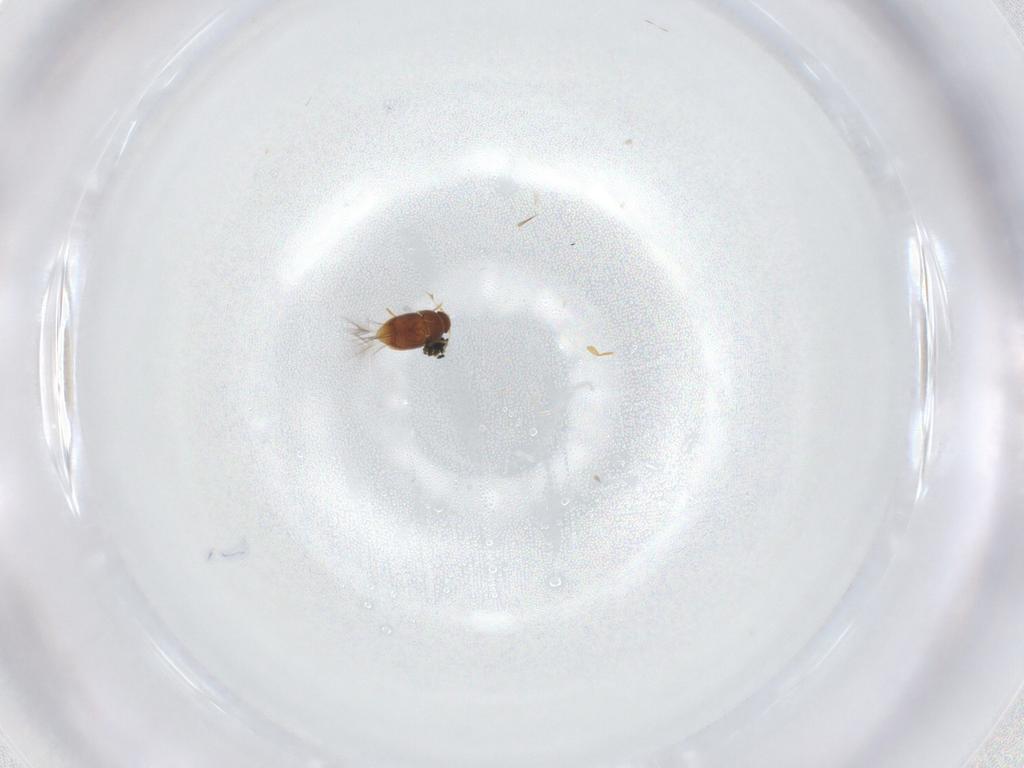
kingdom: Animalia
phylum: Arthropoda
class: Insecta
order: Coleoptera
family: Ptiliidae
